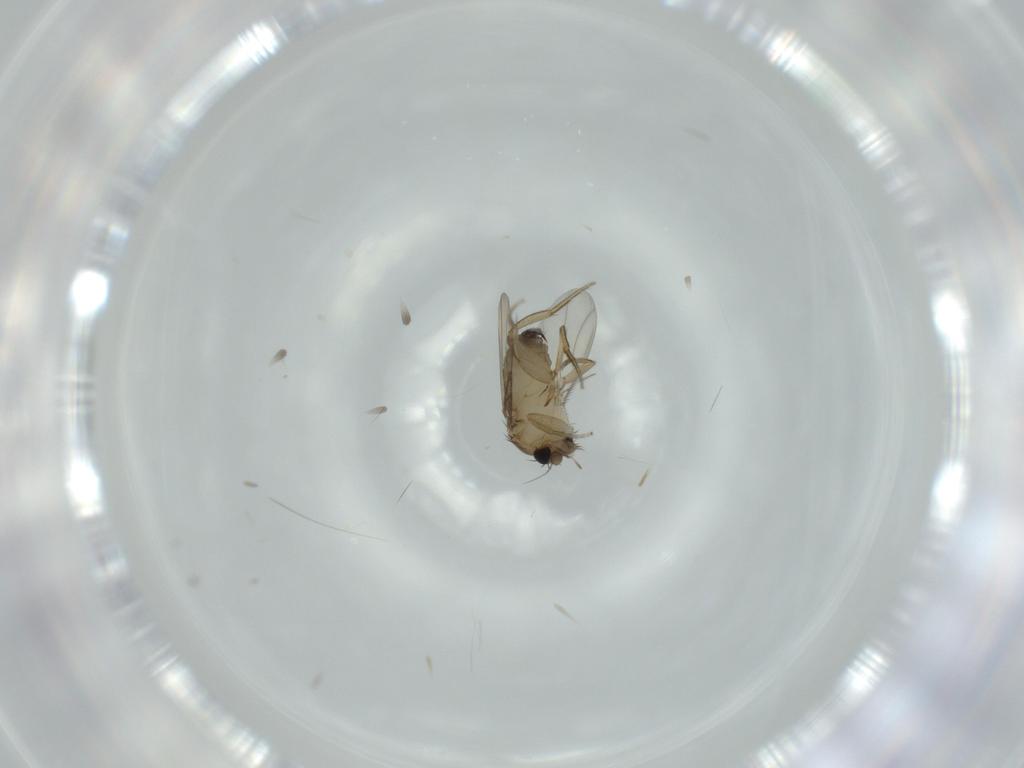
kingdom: Animalia
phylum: Arthropoda
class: Insecta
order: Diptera
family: Phoridae
